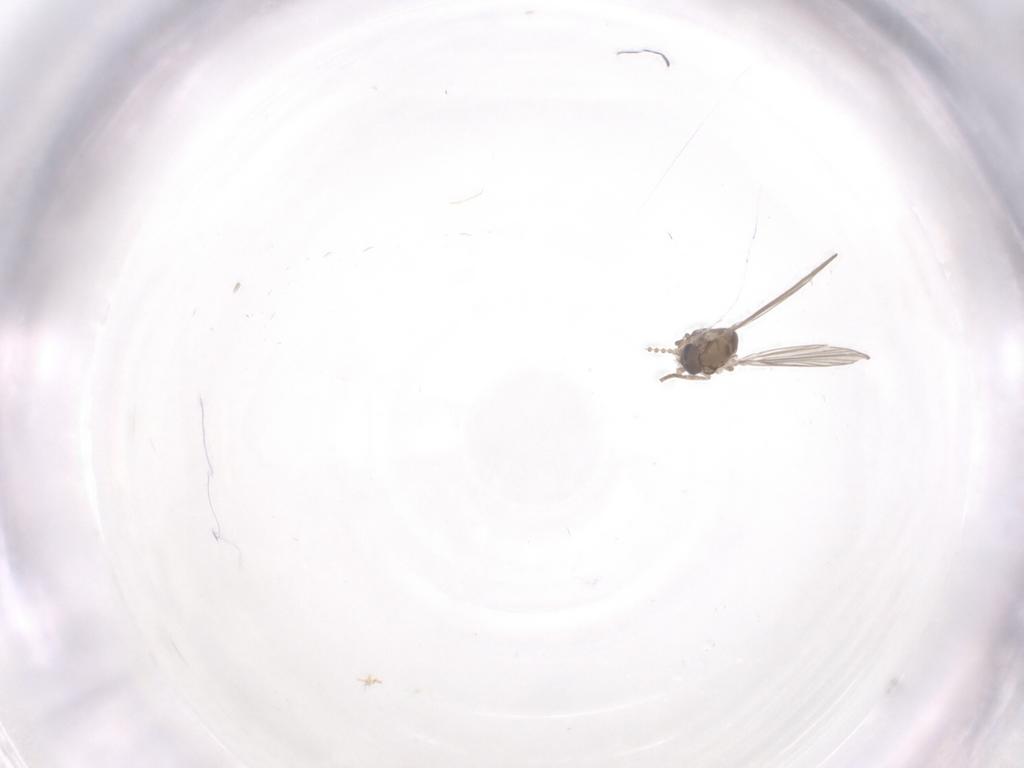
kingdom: Animalia
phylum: Arthropoda
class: Insecta
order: Diptera
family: Psychodidae
